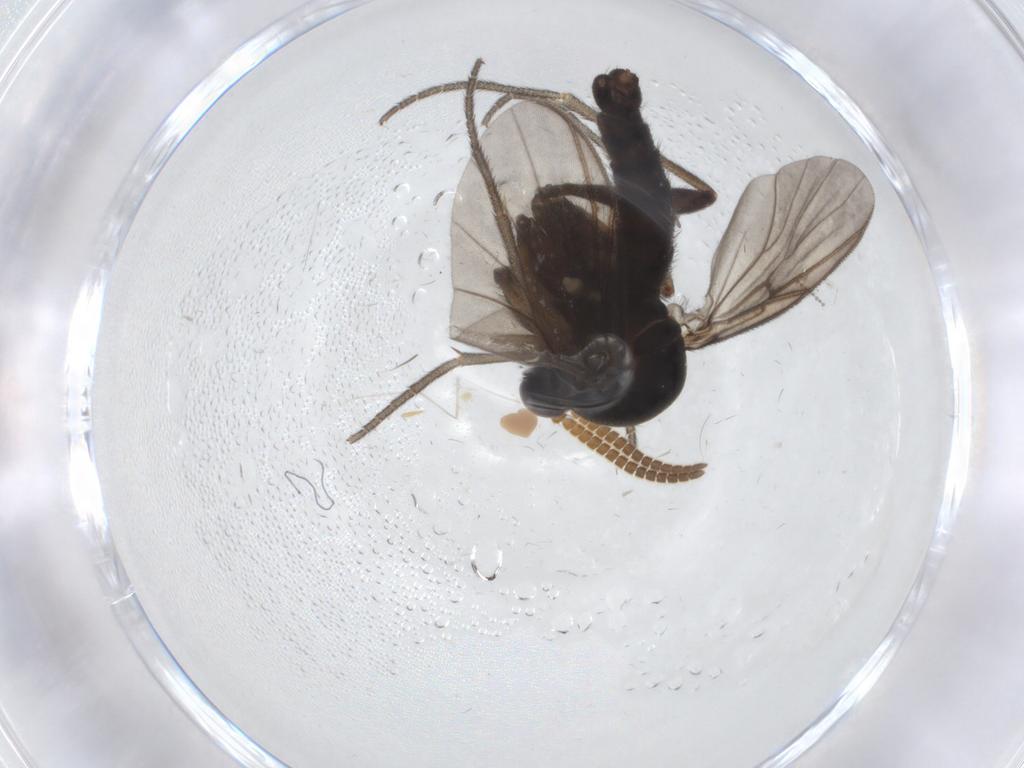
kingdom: Animalia
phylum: Arthropoda
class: Insecta
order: Diptera
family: Mycetophilidae
